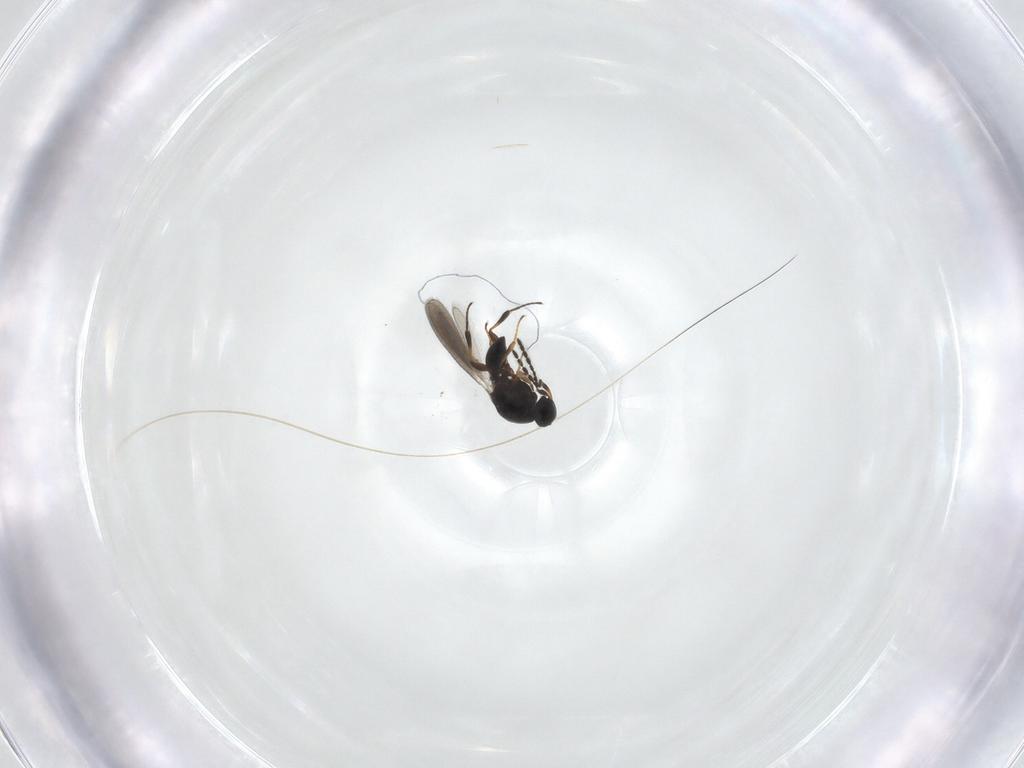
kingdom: Animalia
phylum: Arthropoda
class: Insecta
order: Hymenoptera
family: Platygastridae
